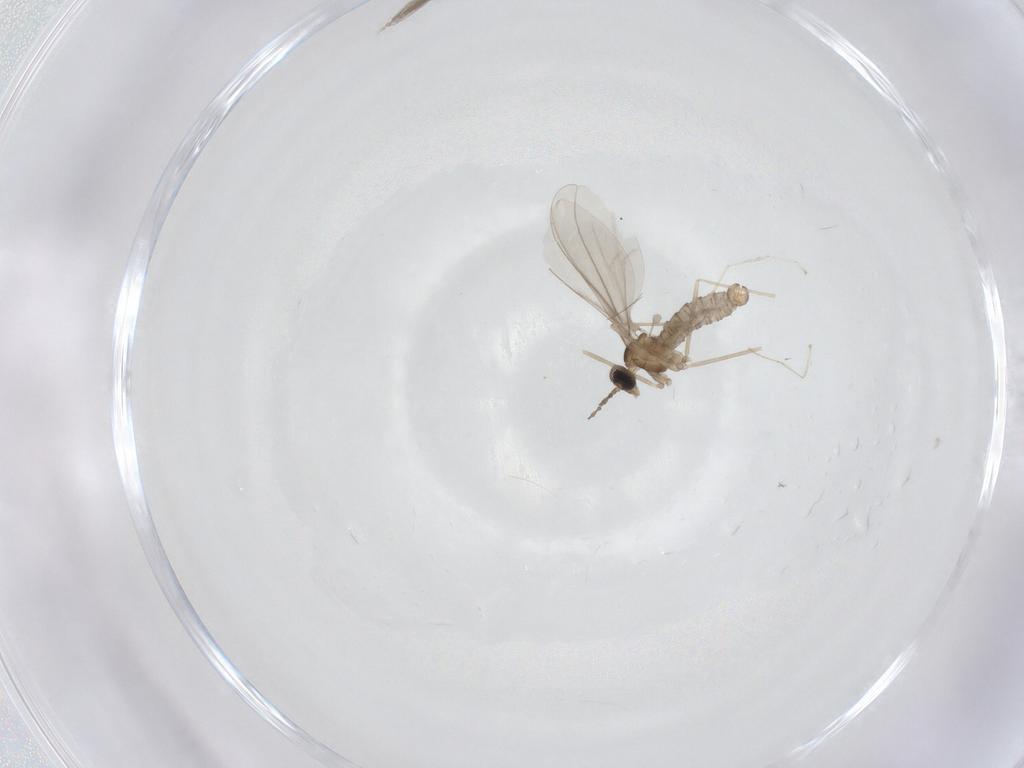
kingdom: Animalia
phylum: Arthropoda
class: Insecta
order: Diptera
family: Ceratopogonidae
